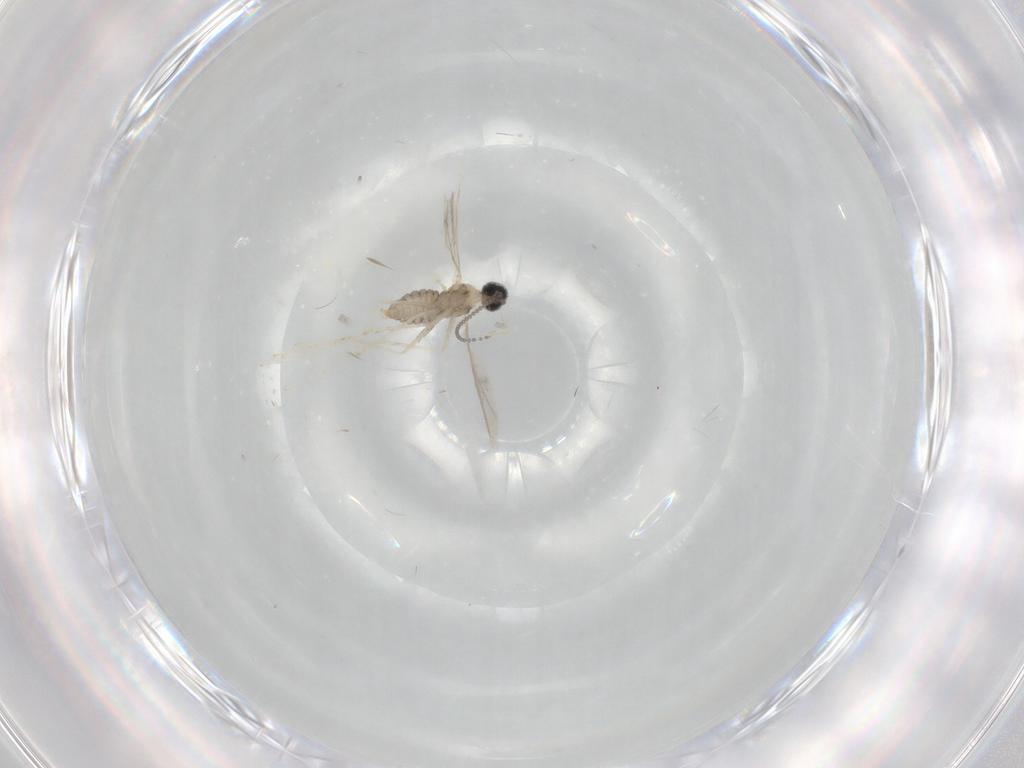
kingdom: Animalia
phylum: Arthropoda
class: Insecta
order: Diptera
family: Cecidomyiidae
